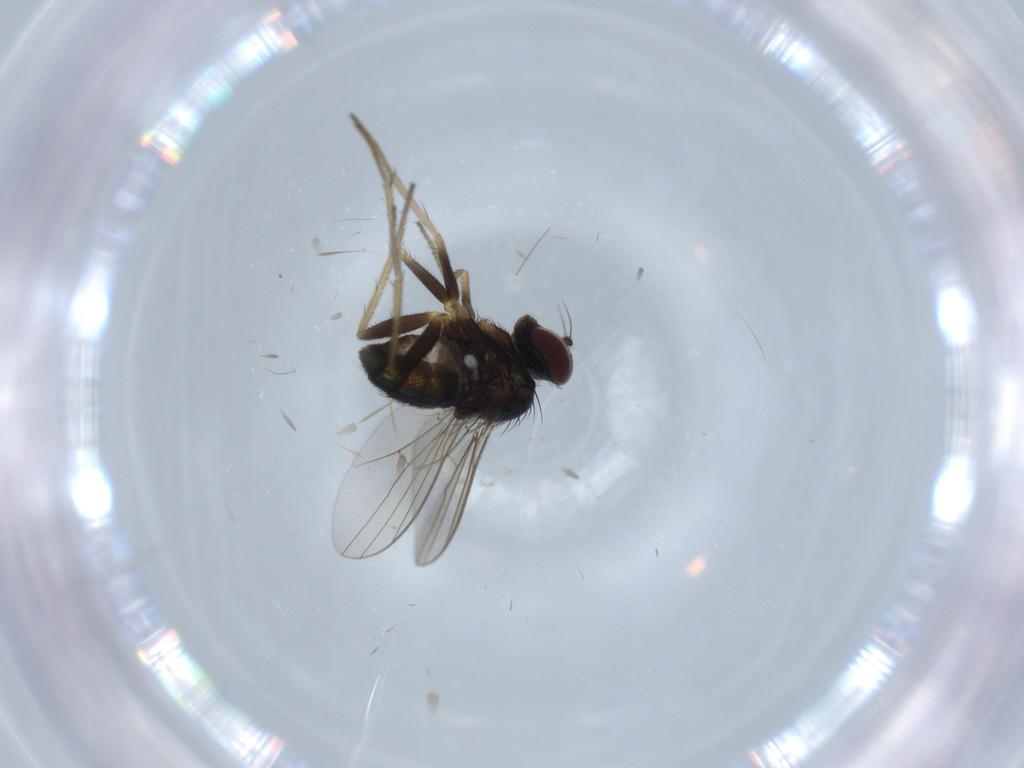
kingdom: Animalia
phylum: Arthropoda
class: Insecta
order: Diptera
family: Dolichopodidae
